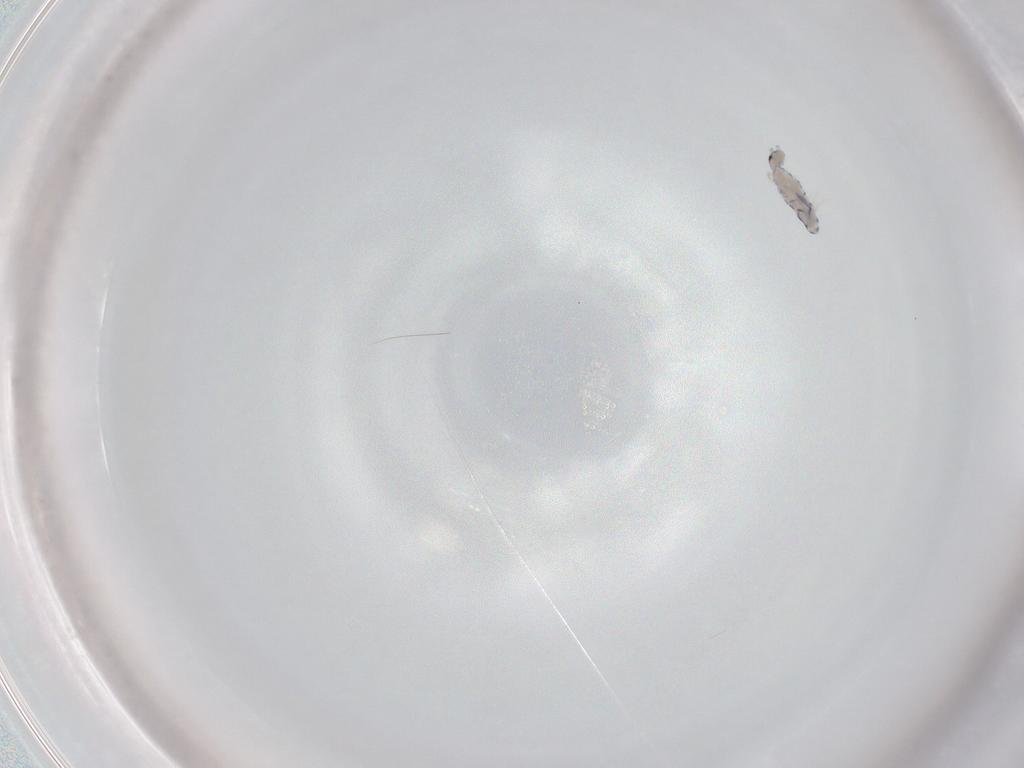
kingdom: Animalia
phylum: Arthropoda
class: Collembola
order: Entomobryomorpha
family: Entomobryidae
